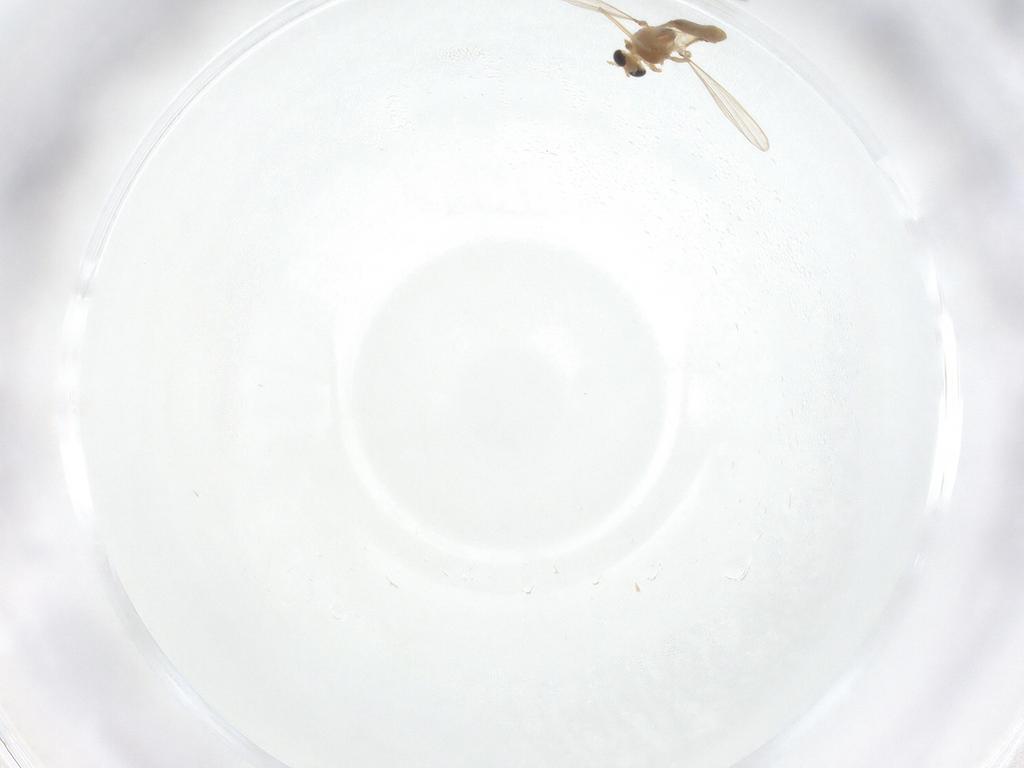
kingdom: Animalia
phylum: Arthropoda
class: Insecta
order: Diptera
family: Chironomidae
